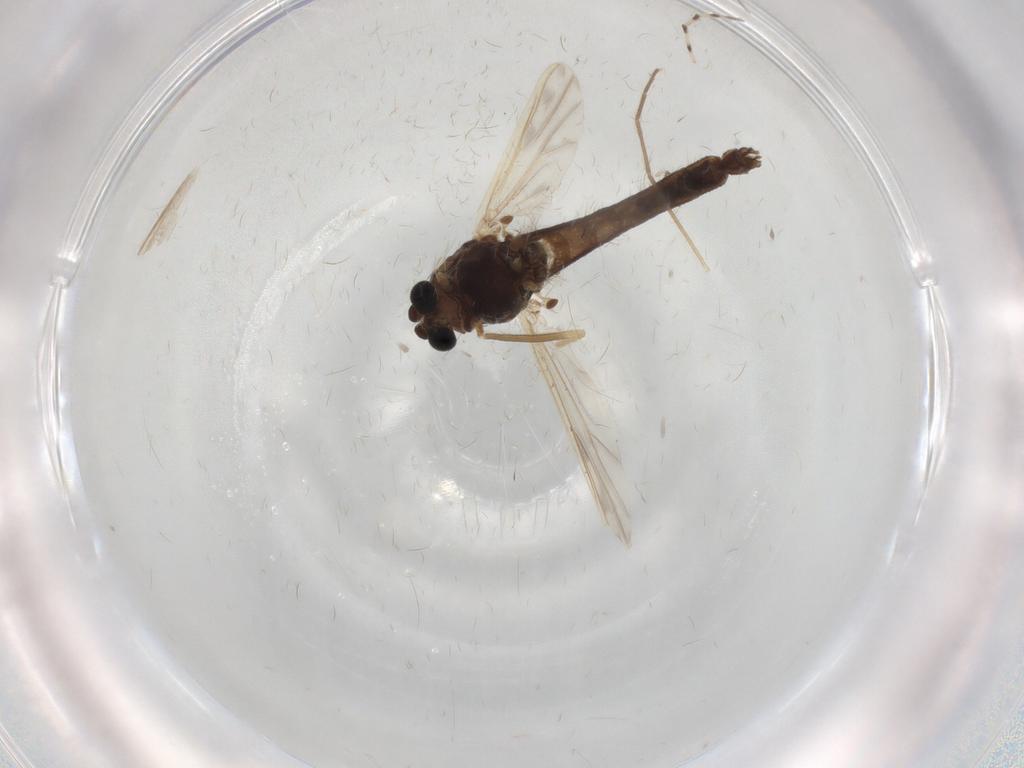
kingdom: Animalia
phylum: Arthropoda
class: Insecta
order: Diptera
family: Chironomidae
